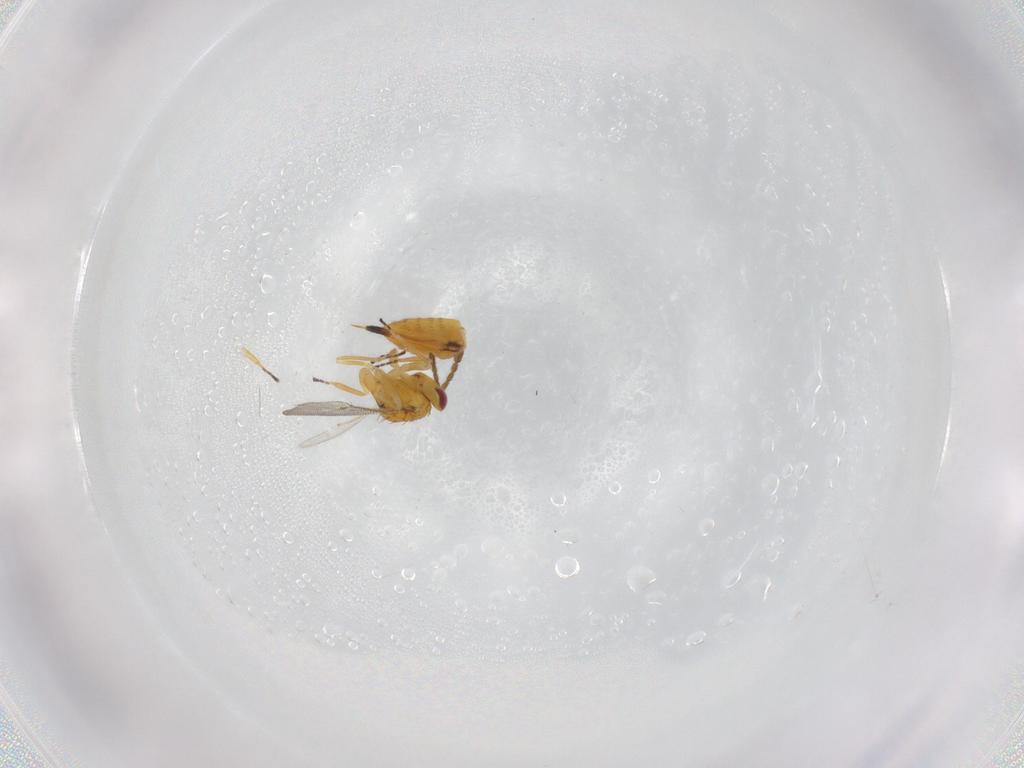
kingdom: Animalia
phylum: Arthropoda
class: Insecta
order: Hymenoptera
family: Eulophidae
